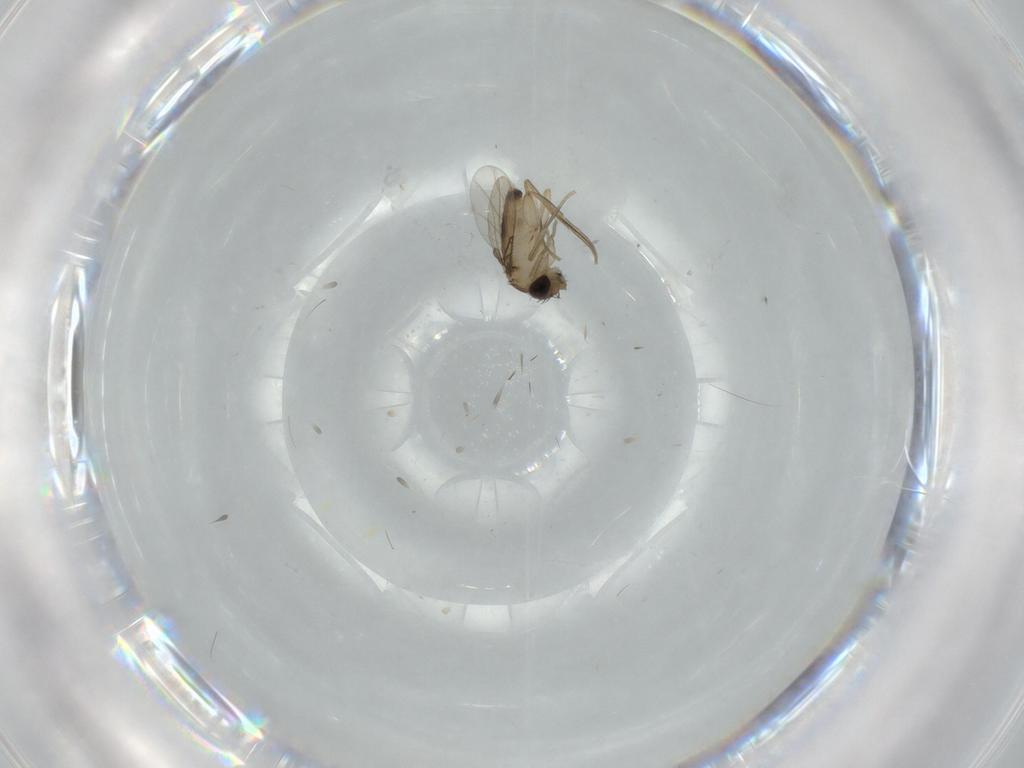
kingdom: Animalia
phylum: Arthropoda
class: Insecta
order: Diptera
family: Phoridae
